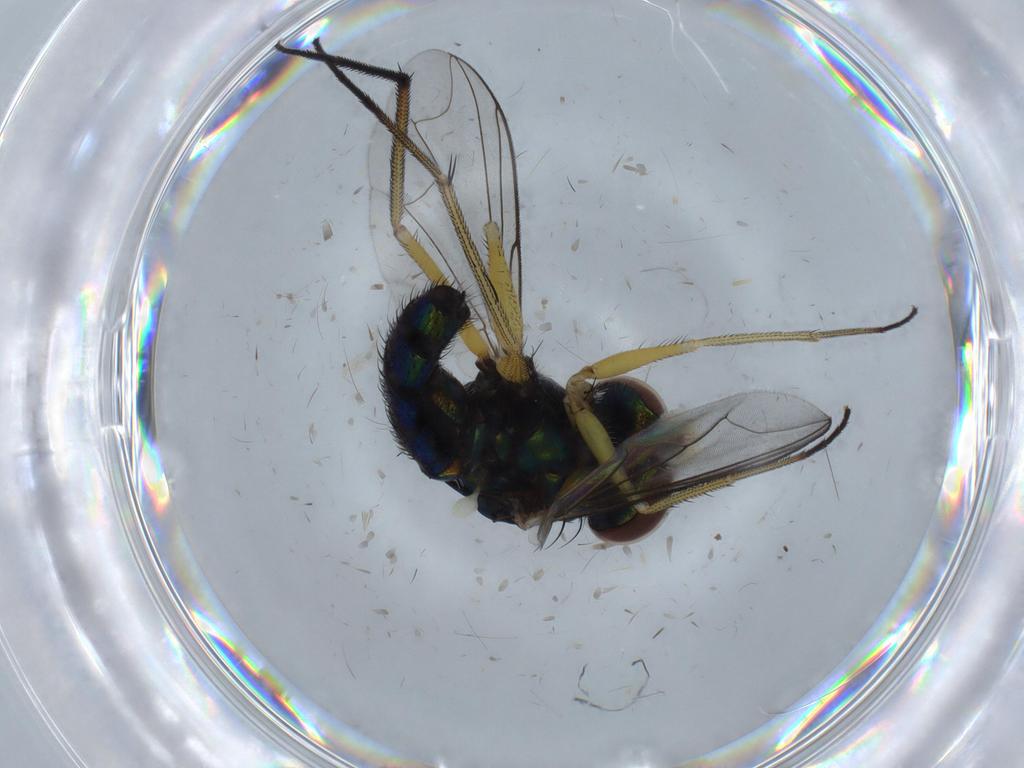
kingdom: Animalia
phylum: Arthropoda
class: Insecta
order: Diptera
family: Dolichopodidae
